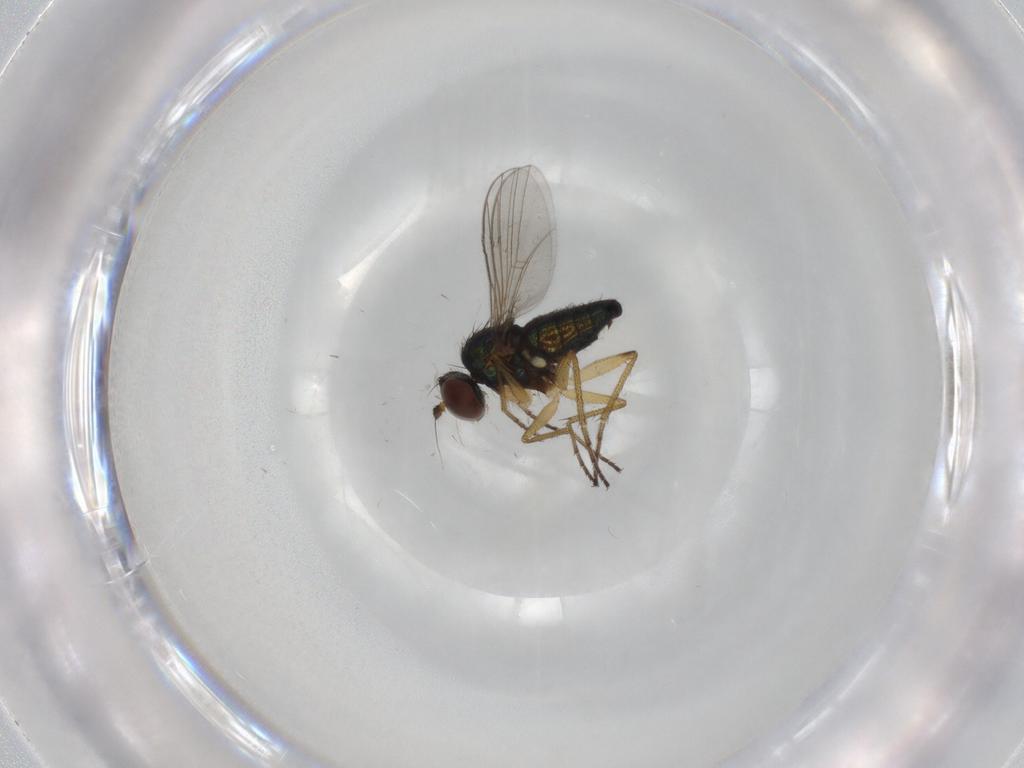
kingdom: Animalia
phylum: Arthropoda
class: Insecta
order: Diptera
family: Dolichopodidae
